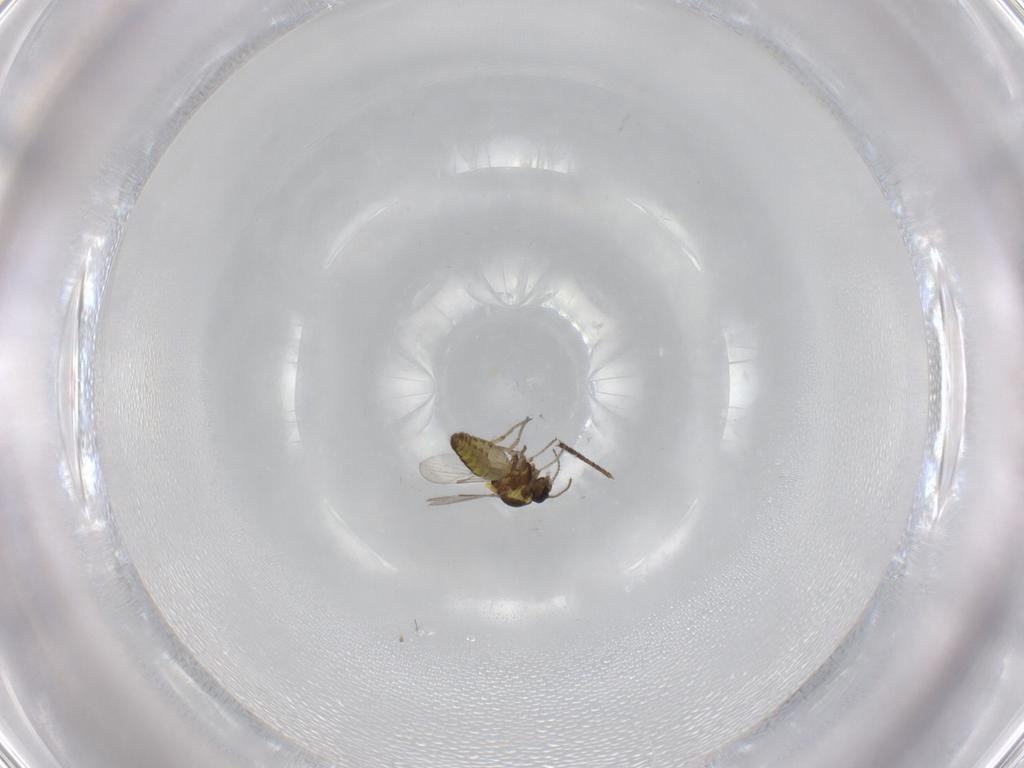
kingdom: Animalia
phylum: Arthropoda
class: Insecta
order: Diptera
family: Ceratopogonidae
